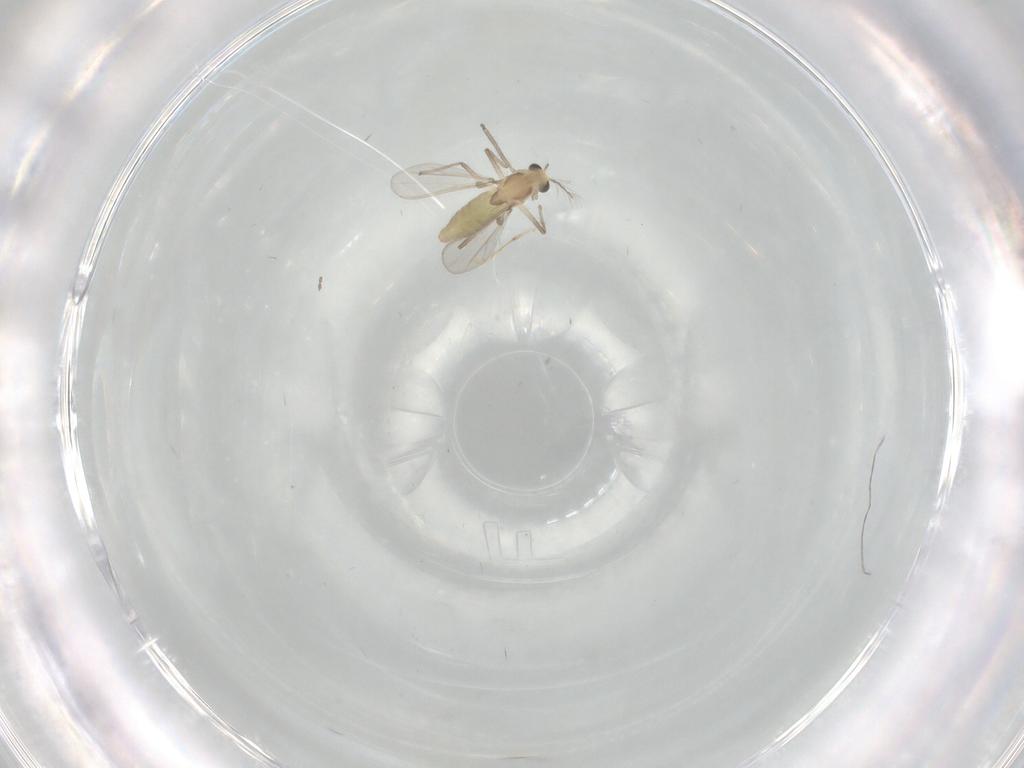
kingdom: Animalia
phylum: Arthropoda
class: Insecta
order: Diptera
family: Chironomidae
